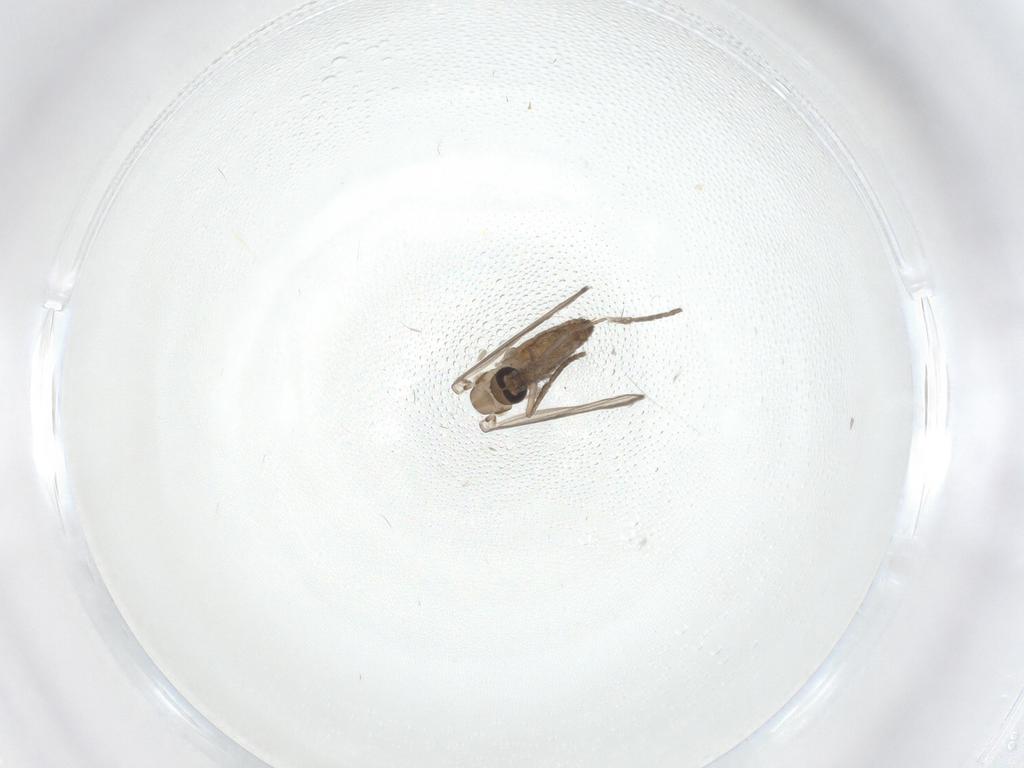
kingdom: Animalia
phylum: Arthropoda
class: Insecta
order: Diptera
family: Psychodidae
